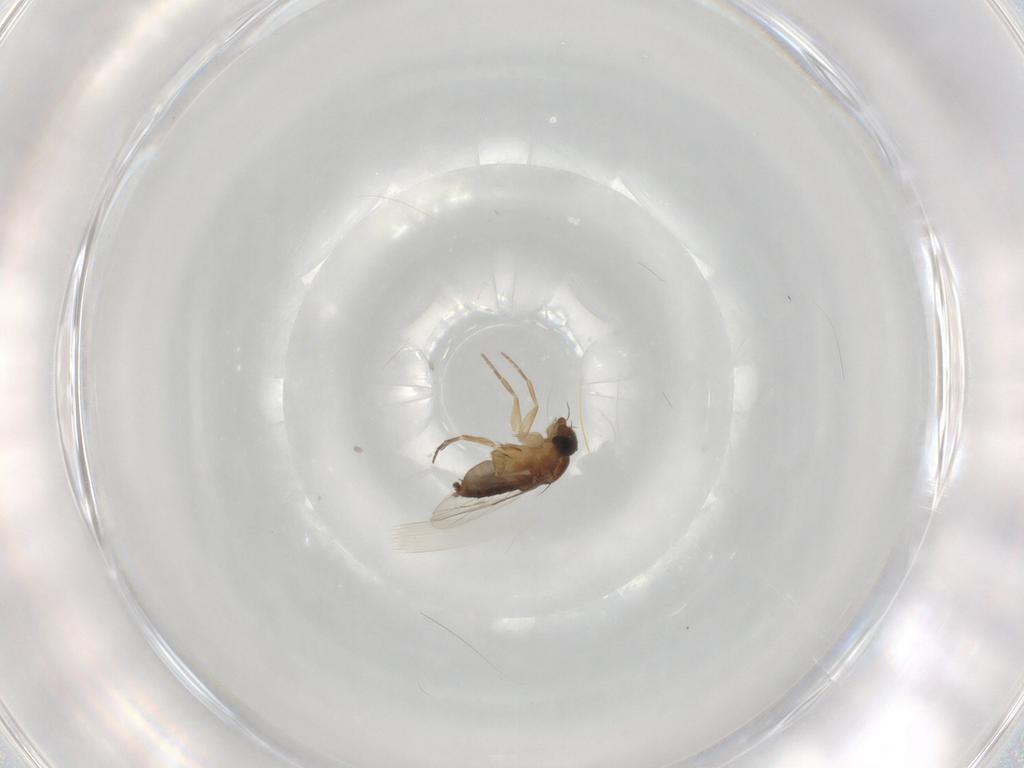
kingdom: Animalia
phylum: Arthropoda
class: Insecta
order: Diptera
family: Phoridae
